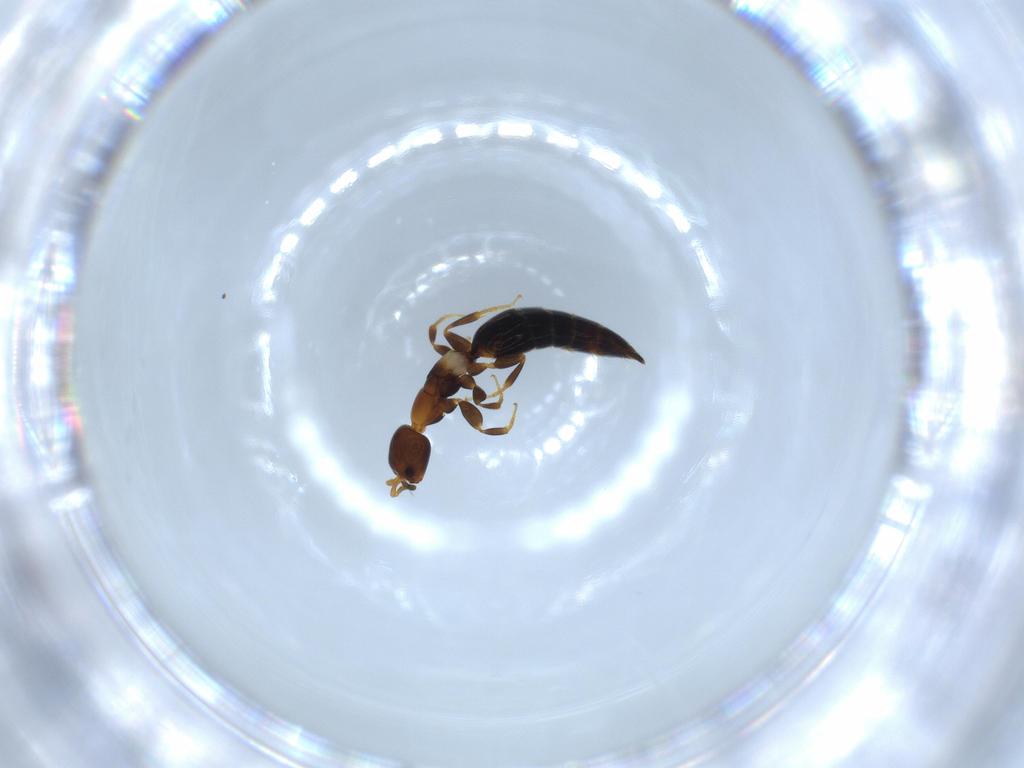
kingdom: Animalia
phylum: Arthropoda
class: Insecta
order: Hymenoptera
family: Bethylidae
